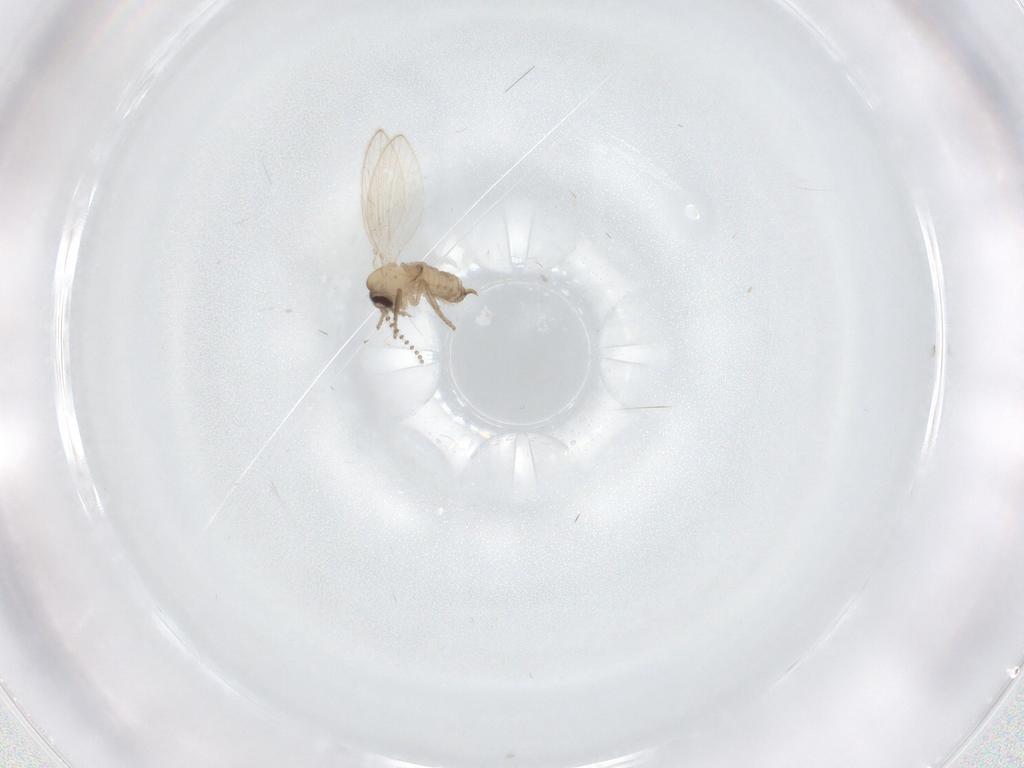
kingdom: Animalia
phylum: Arthropoda
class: Insecta
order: Diptera
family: Psychodidae
